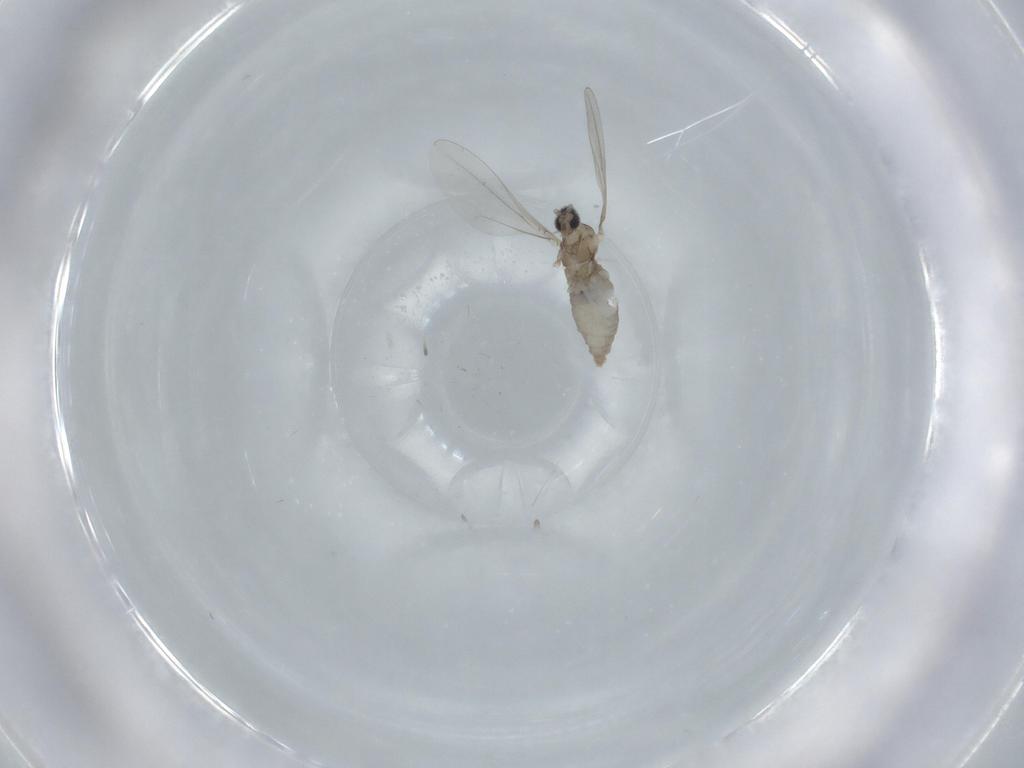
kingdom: Animalia
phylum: Arthropoda
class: Insecta
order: Diptera
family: Cecidomyiidae
